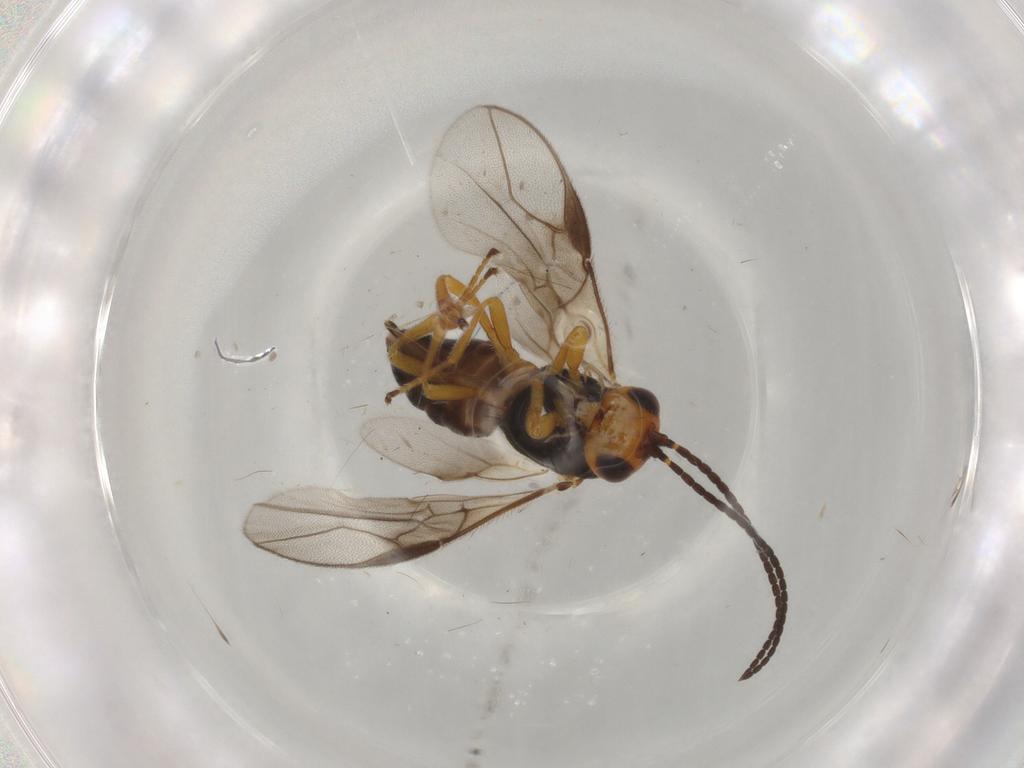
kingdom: Animalia
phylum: Arthropoda
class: Insecta
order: Hymenoptera
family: Braconidae
